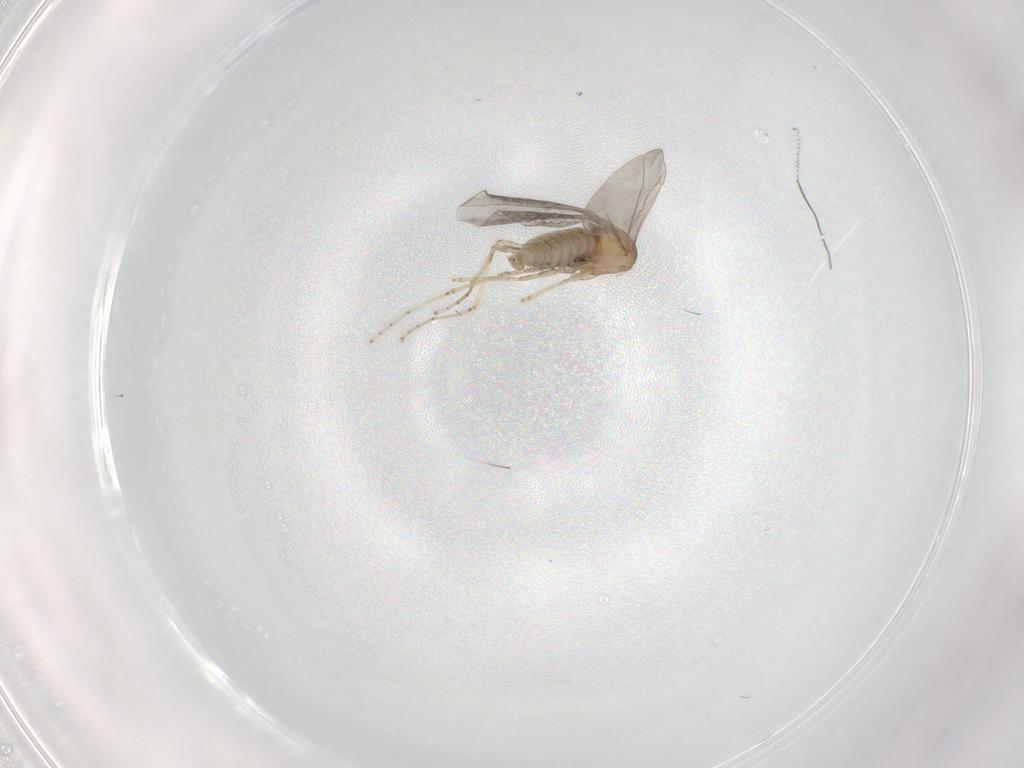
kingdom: Animalia
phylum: Arthropoda
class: Insecta
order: Diptera
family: Cecidomyiidae
